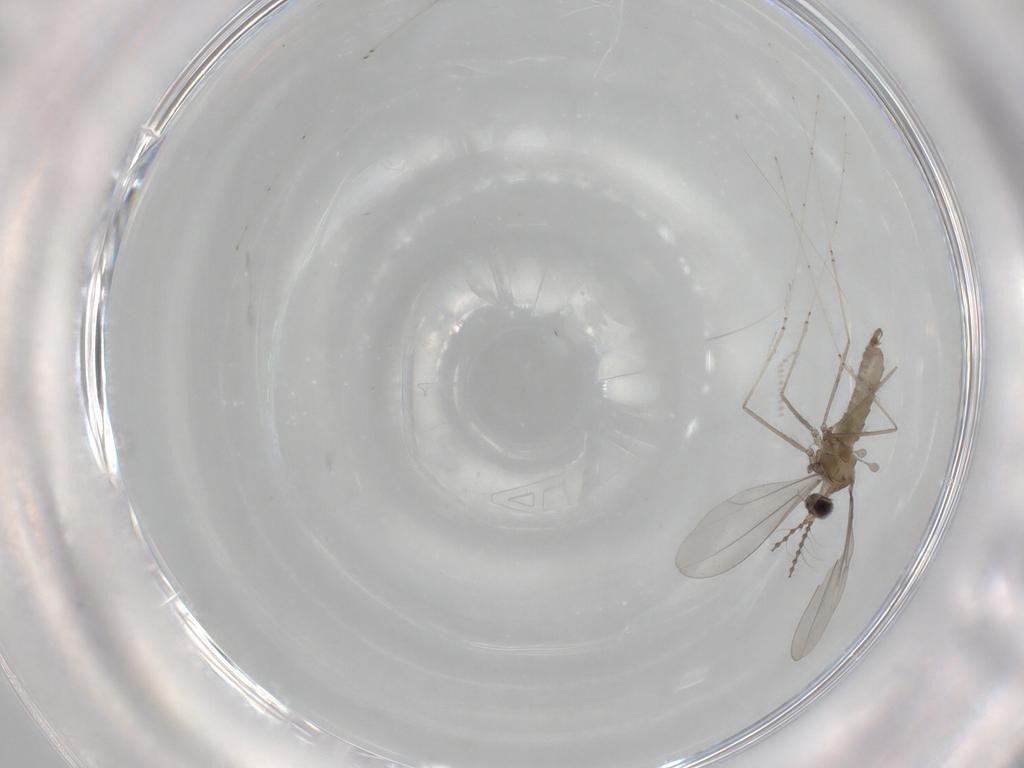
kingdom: Animalia
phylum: Arthropoda
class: Insecta
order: Diptera
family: Cecidomyiidae
